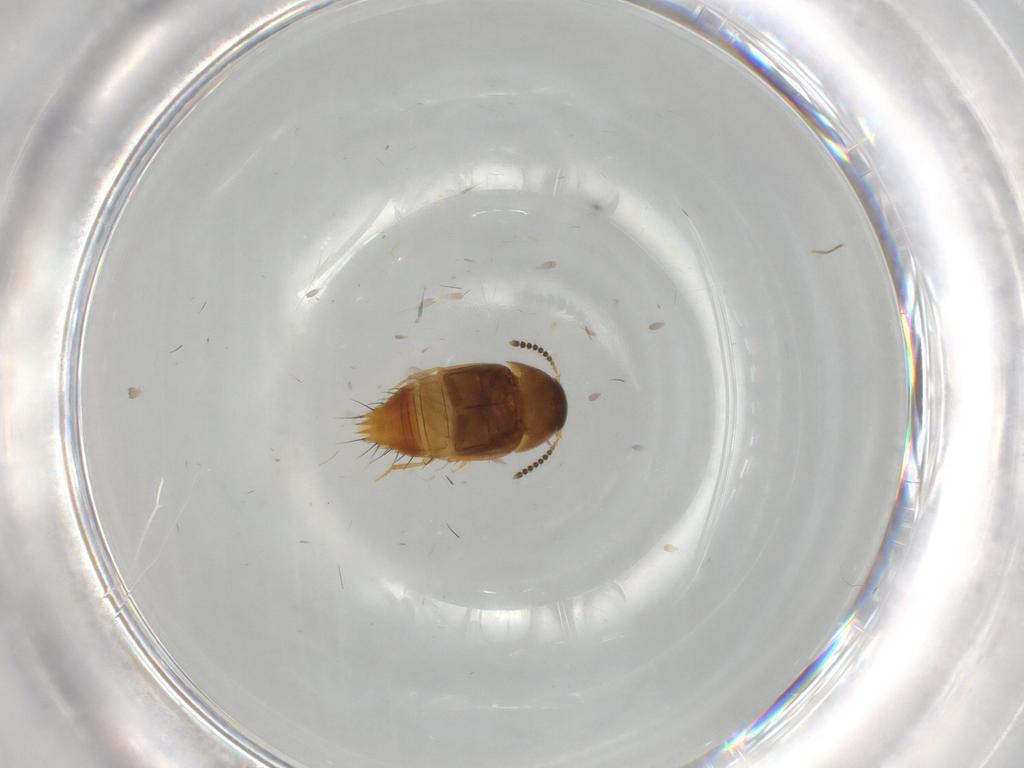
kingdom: Animalia
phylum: Arthropoda
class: Insecta
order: Coleoptera
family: Staphylinidae
